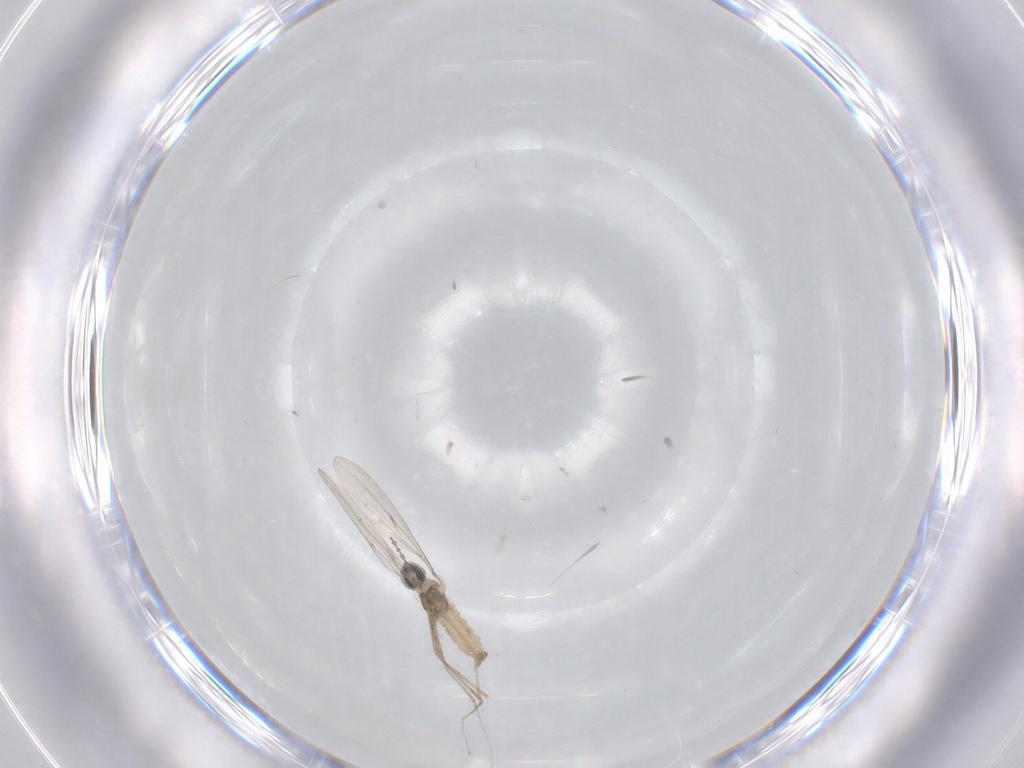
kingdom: Animalia
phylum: Arthropoda
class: Insecta
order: Diptera
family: Cecidomyiidae
